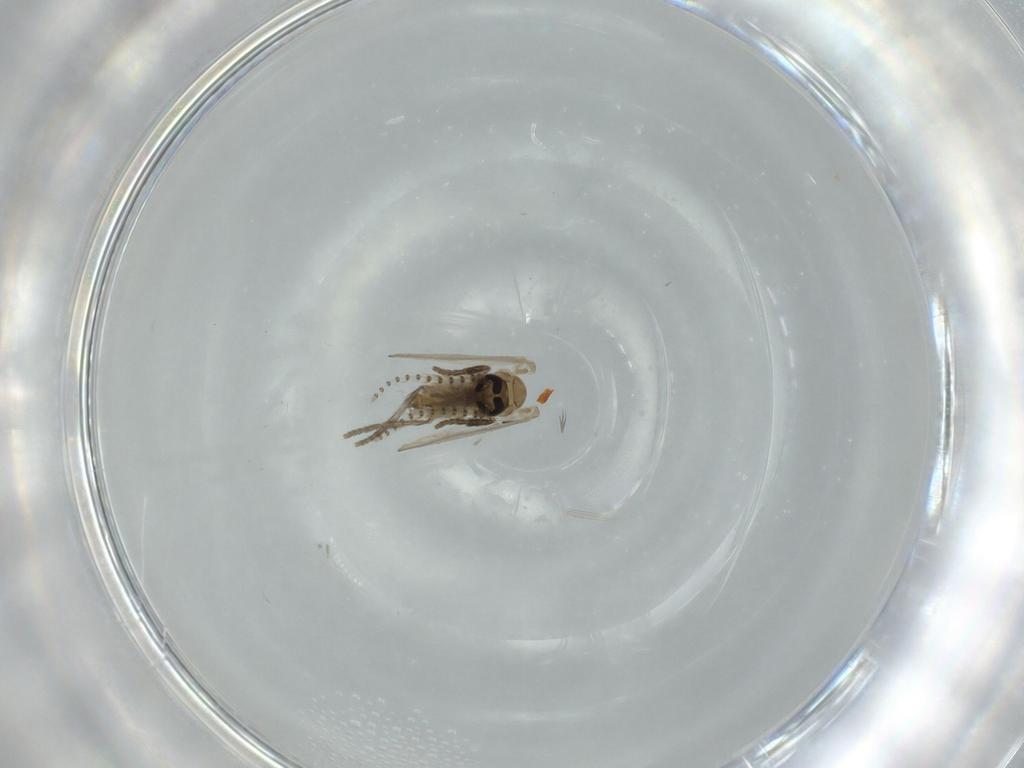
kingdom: Animalia
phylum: Arthropoda
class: Insecta
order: Diptera
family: Psychodidae
